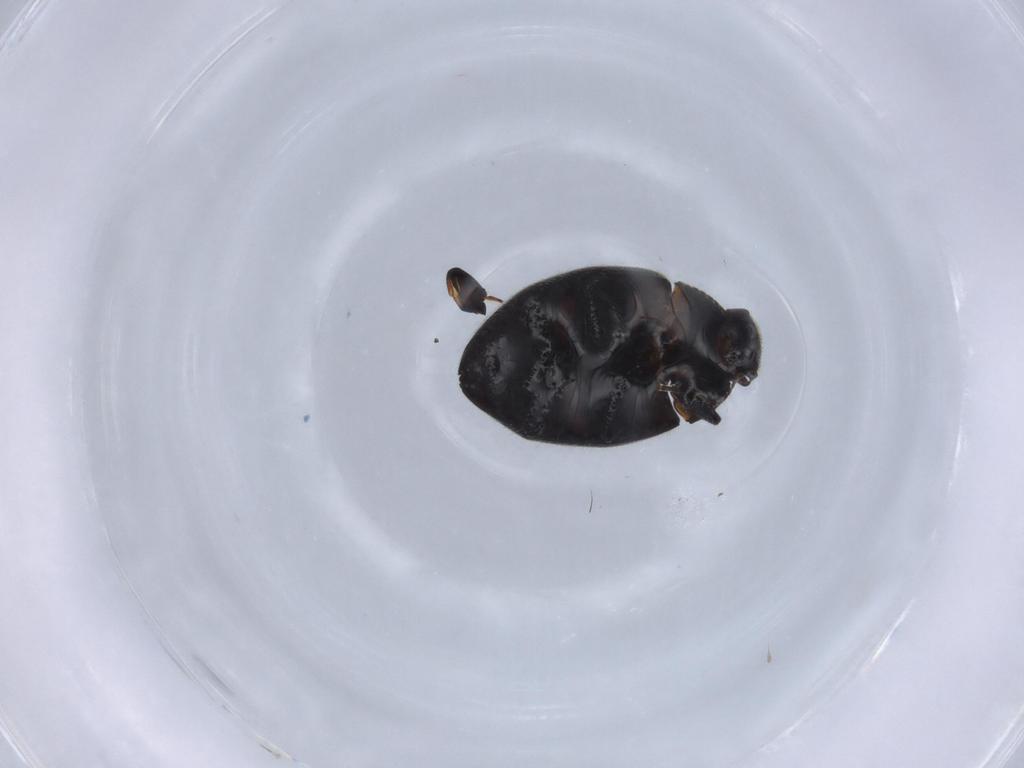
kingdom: Animalia
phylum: Arthropoda
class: Insecta
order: Coleoptera
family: Psephenidae
